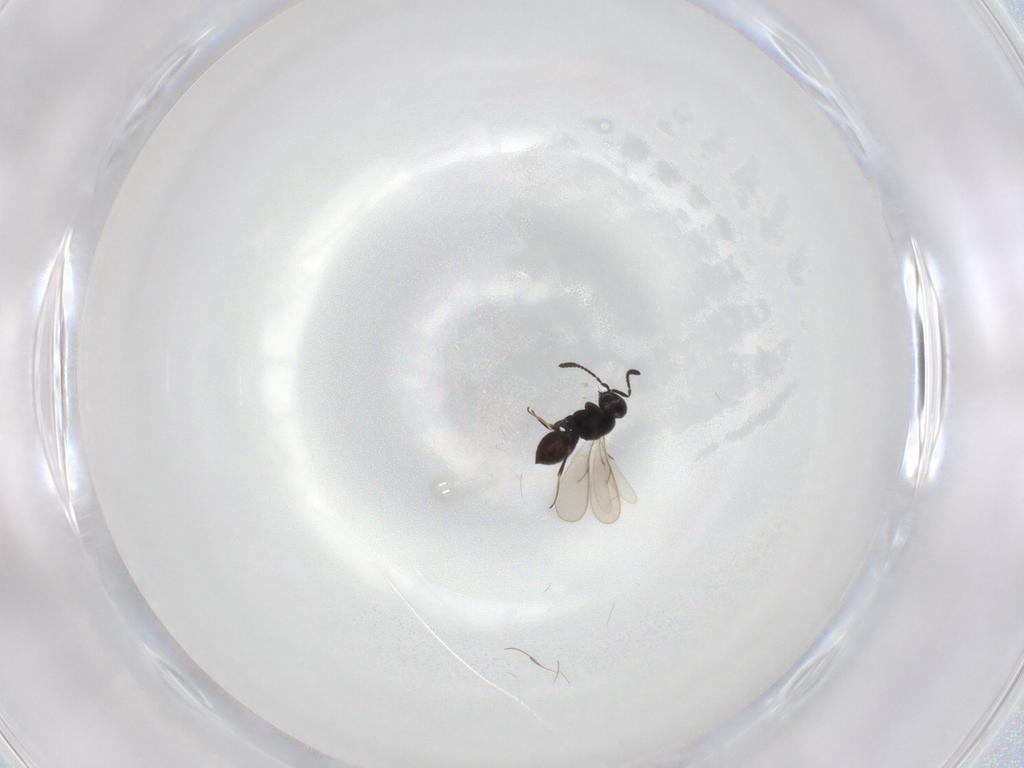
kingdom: Animalia
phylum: Arthropoda
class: Insecta
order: Hymenoptera
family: Scelionidae
